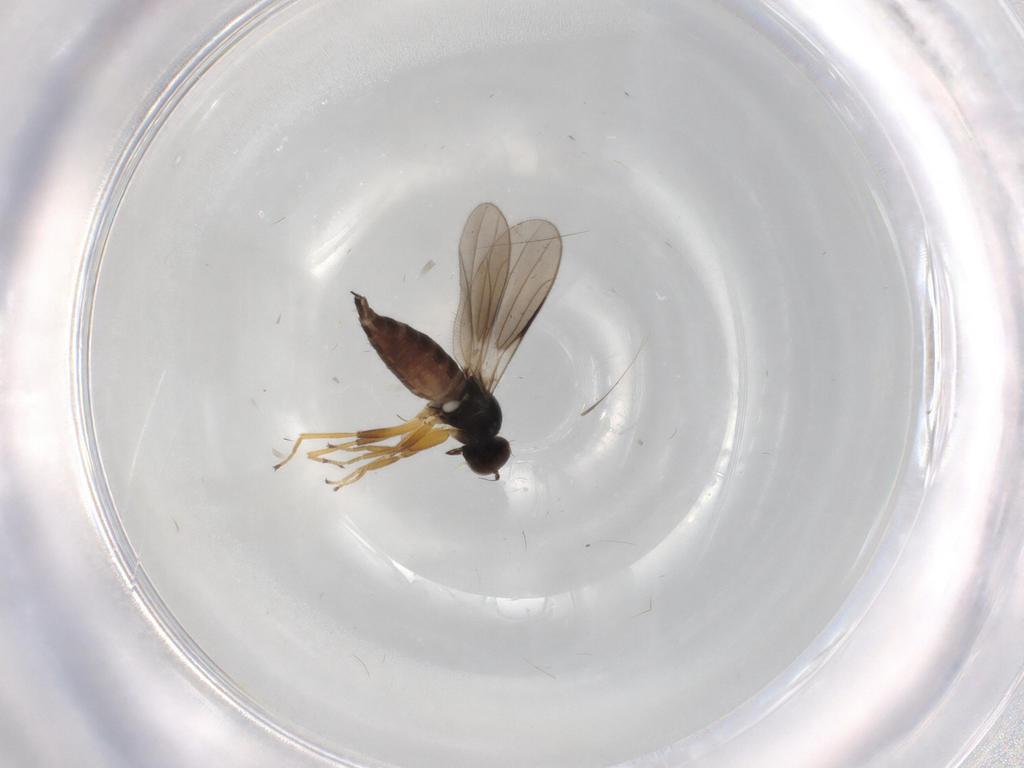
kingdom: Animalia
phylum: Arthropoda
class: Insecta
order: Diptera
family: Hybotidae
